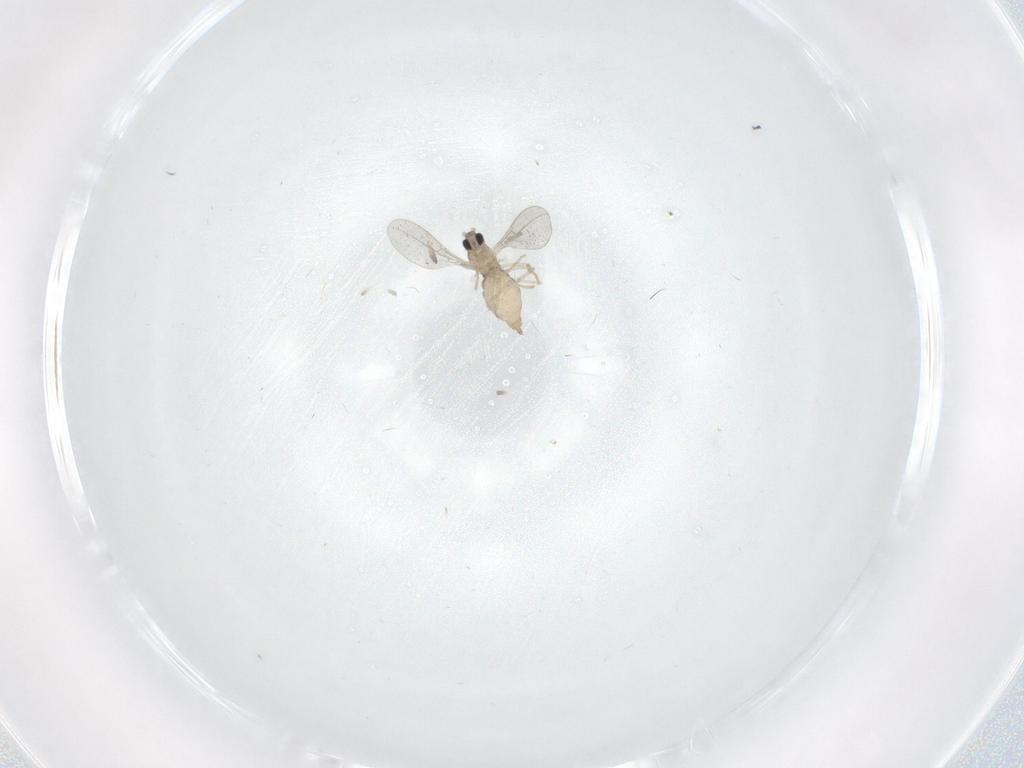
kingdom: Animalia
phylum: Arthropoda
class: Insecta
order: Diptera
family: Cecidomyiidae
